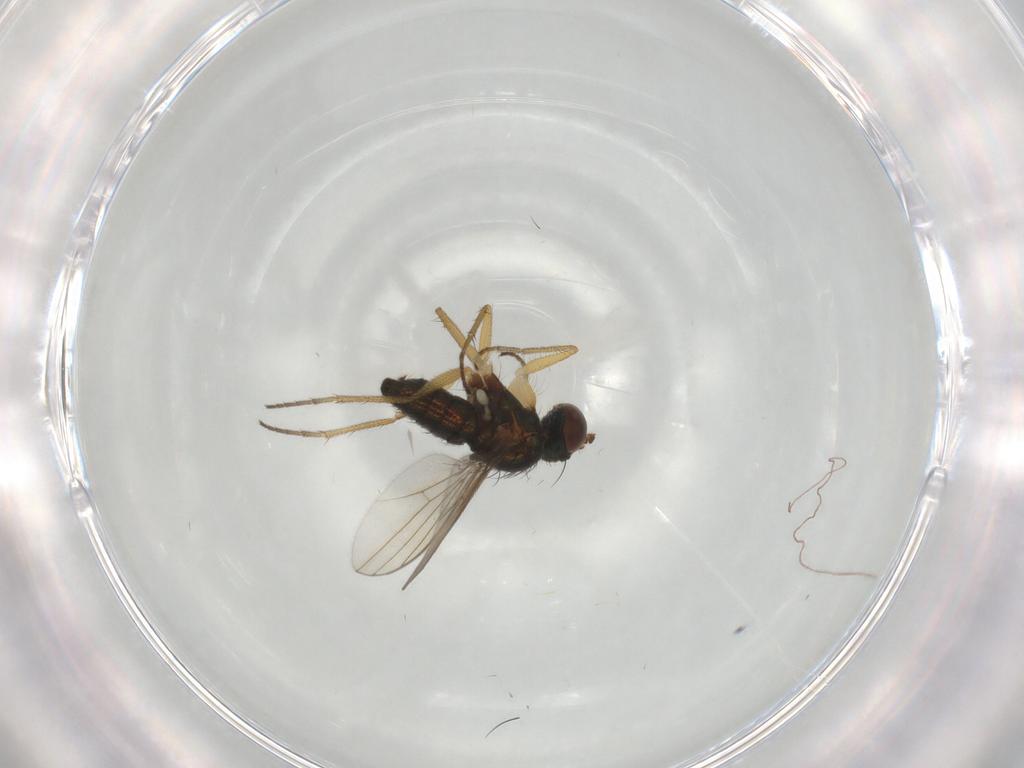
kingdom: Animalia
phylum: Arthropoda
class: Insecta
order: Diptera
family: Dolichopodidae
